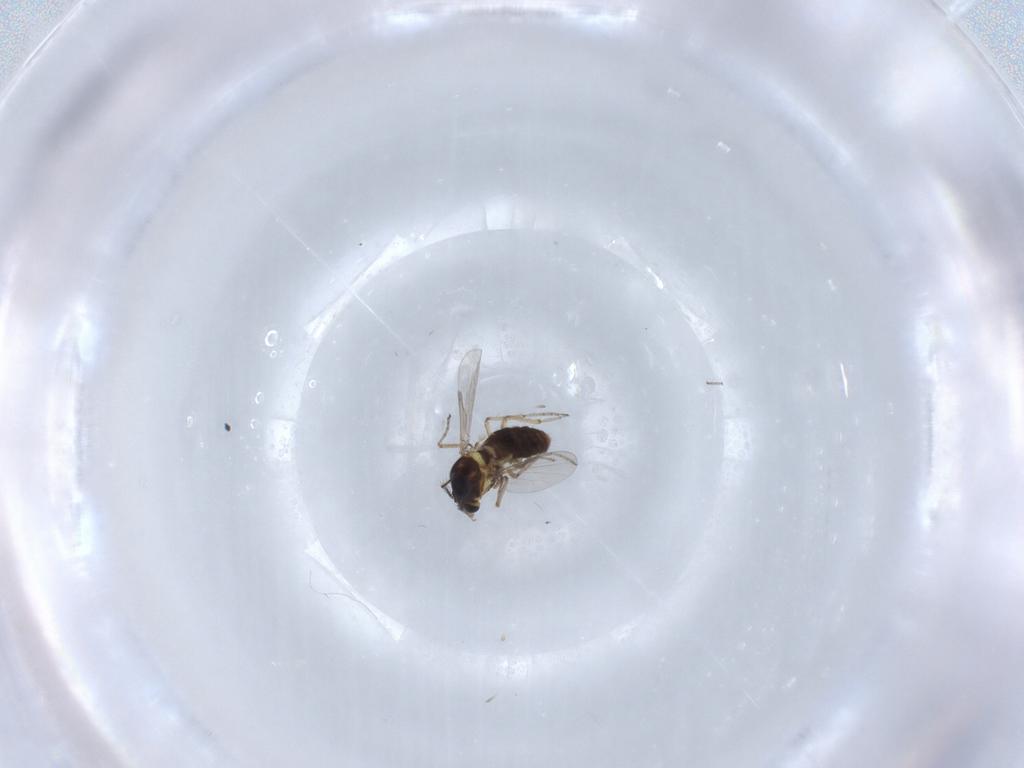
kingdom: Animalia
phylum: Arthropoda
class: Insecta
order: Diptera
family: Ceratopogonidae
